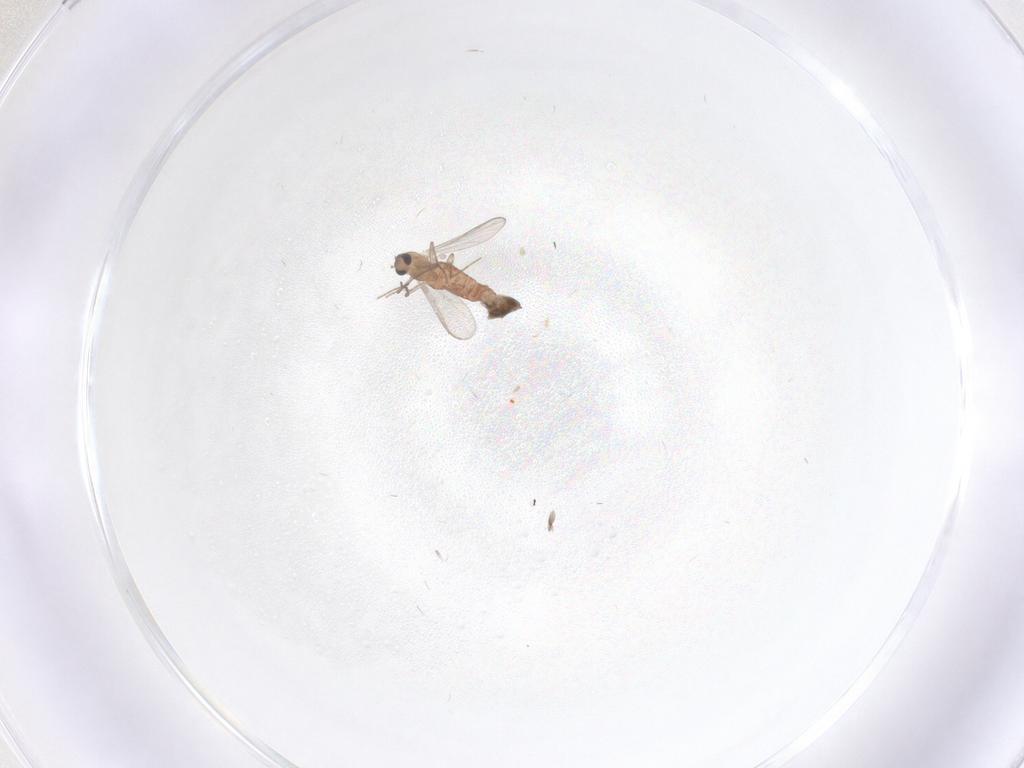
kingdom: Animalia
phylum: Arthropoda
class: Insecta
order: Diptera
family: Chironomidae
